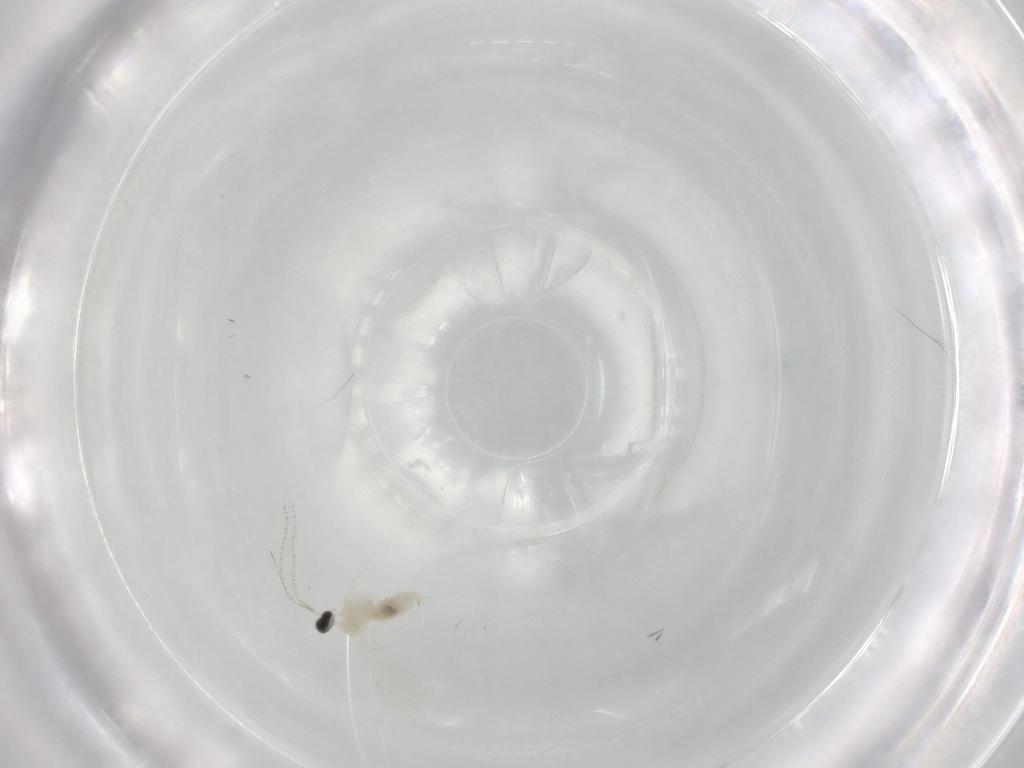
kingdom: Animalia
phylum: Arthropoda
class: Insecta
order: Diptera
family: Cecidomyiidae
